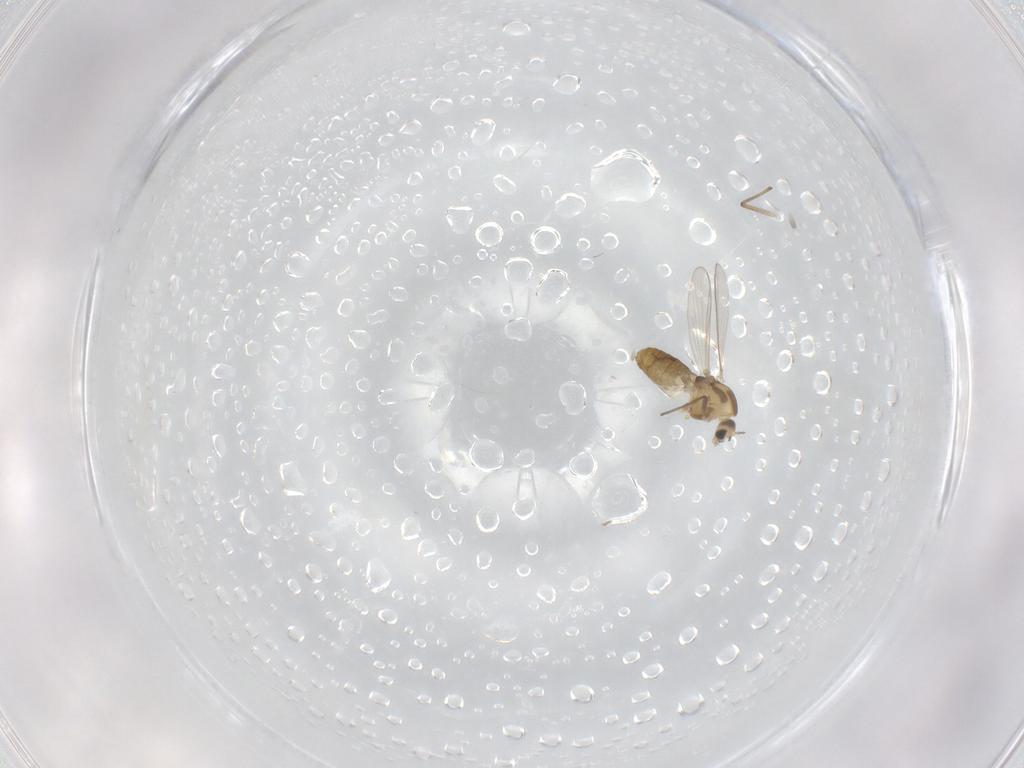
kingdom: Animalia
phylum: Arthropoda
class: Insecta
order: Diptera
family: Chironomidae
